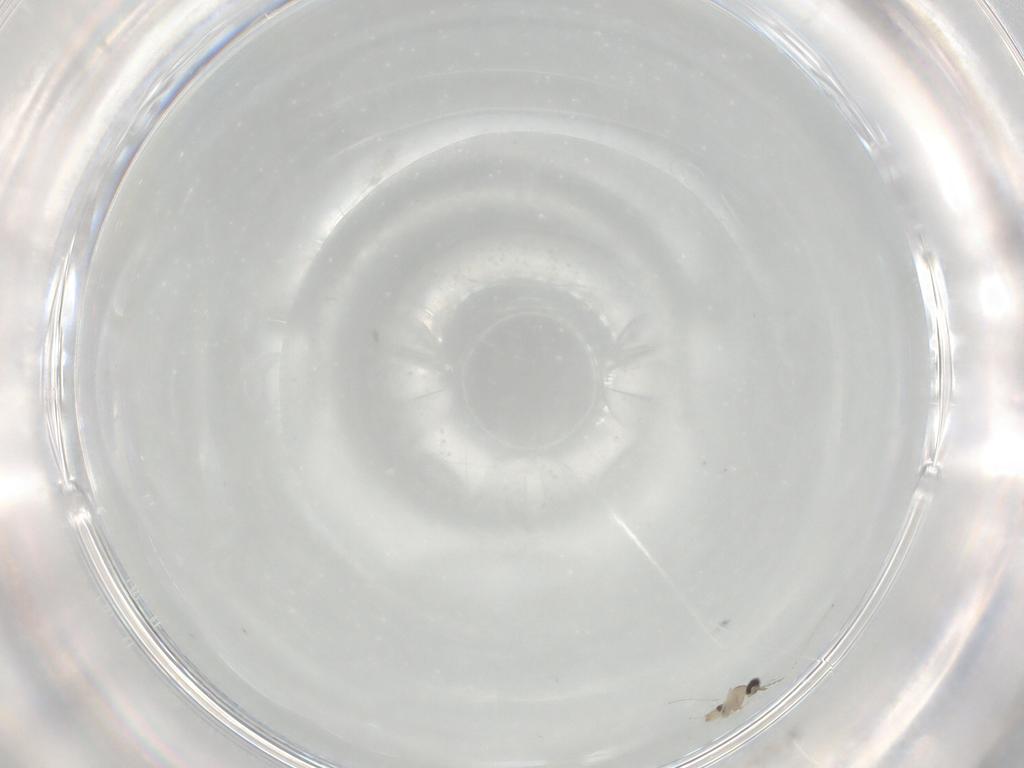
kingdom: Animalia
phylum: Arthropoda
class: Insecta
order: Diptera
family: Cecidomyiidae
